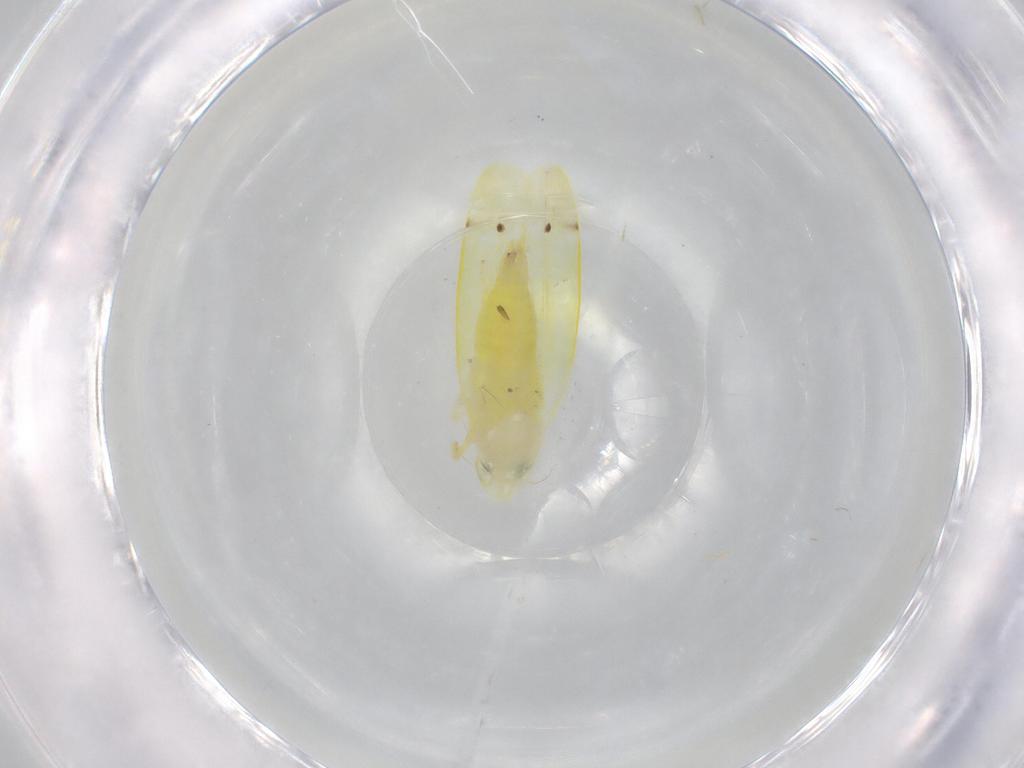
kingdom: Animalia
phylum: Arthropoda
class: Insecta
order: Hemiptera
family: Cicadellidae
